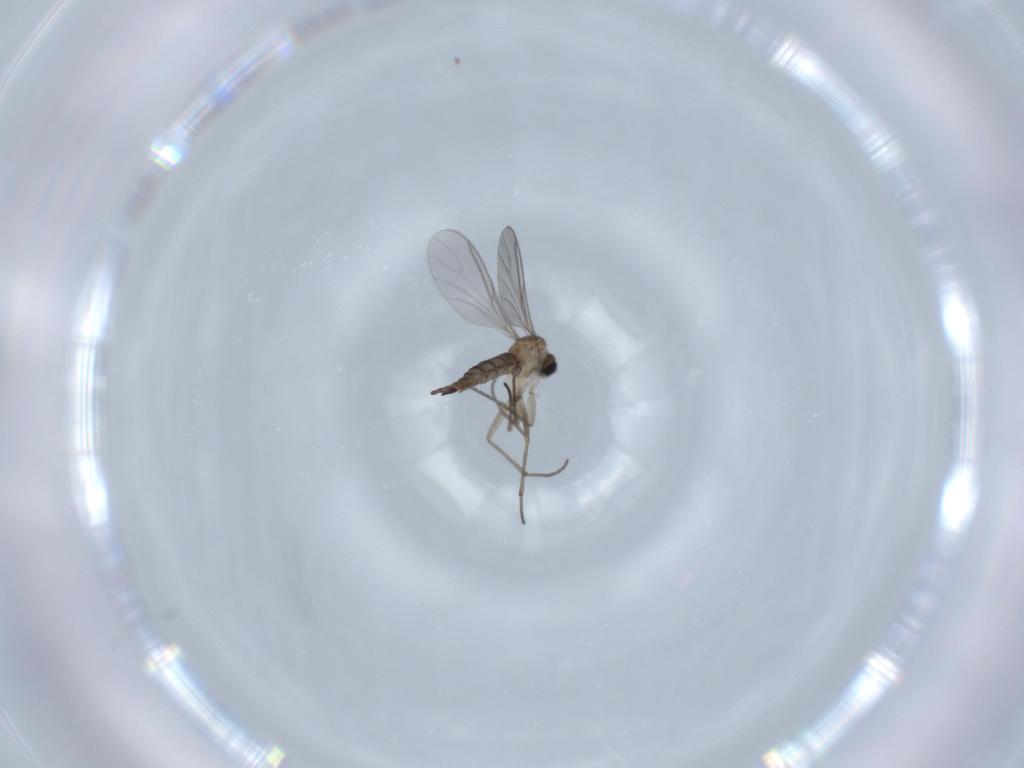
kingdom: Animalia
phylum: Arthropoda
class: Insecta
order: Diptera
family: Sciaridae
